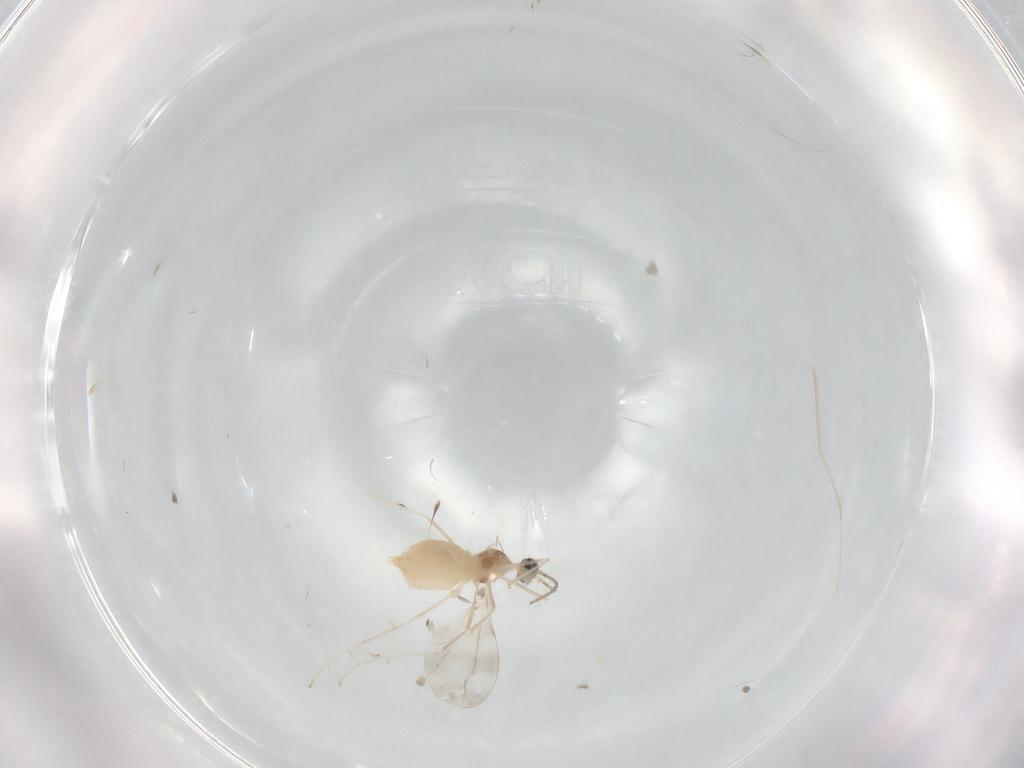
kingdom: Animalia
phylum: Arthropoda
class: Insecta
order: Diptera
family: Cecidomyiidae
